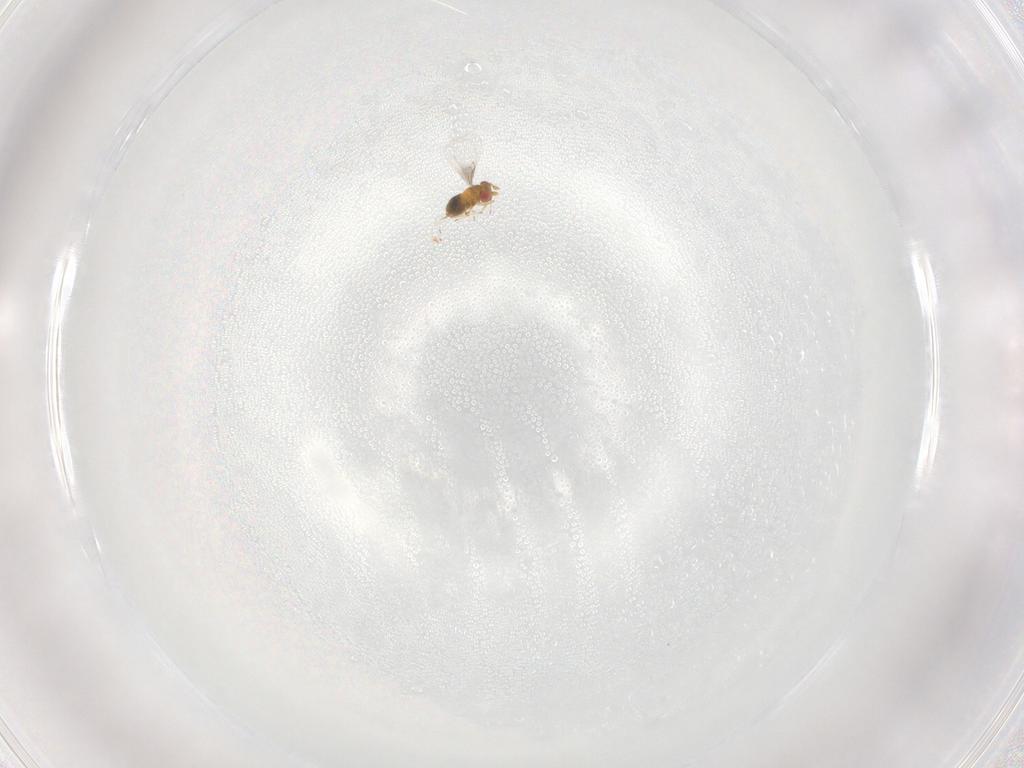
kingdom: Animalia
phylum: Arthropoda
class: Insecta
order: Hymenoptera
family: Trichogrammatidae
